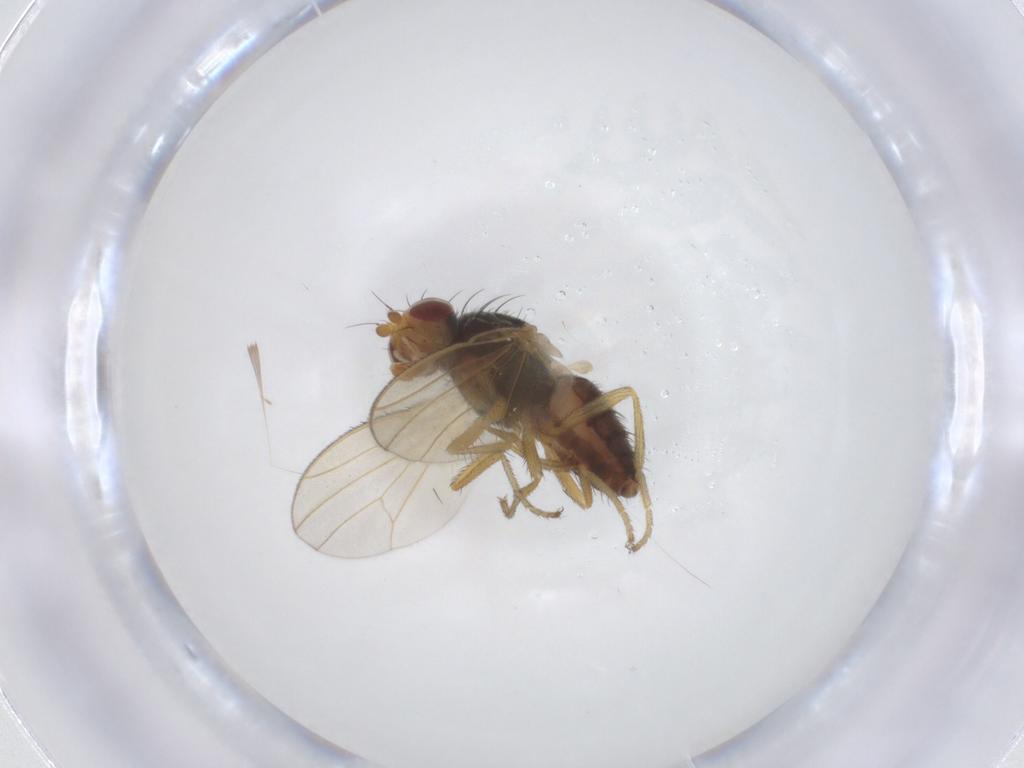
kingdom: Animalia
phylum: Arthropoda
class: Insecta
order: Diptera
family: Heleomyzidae
